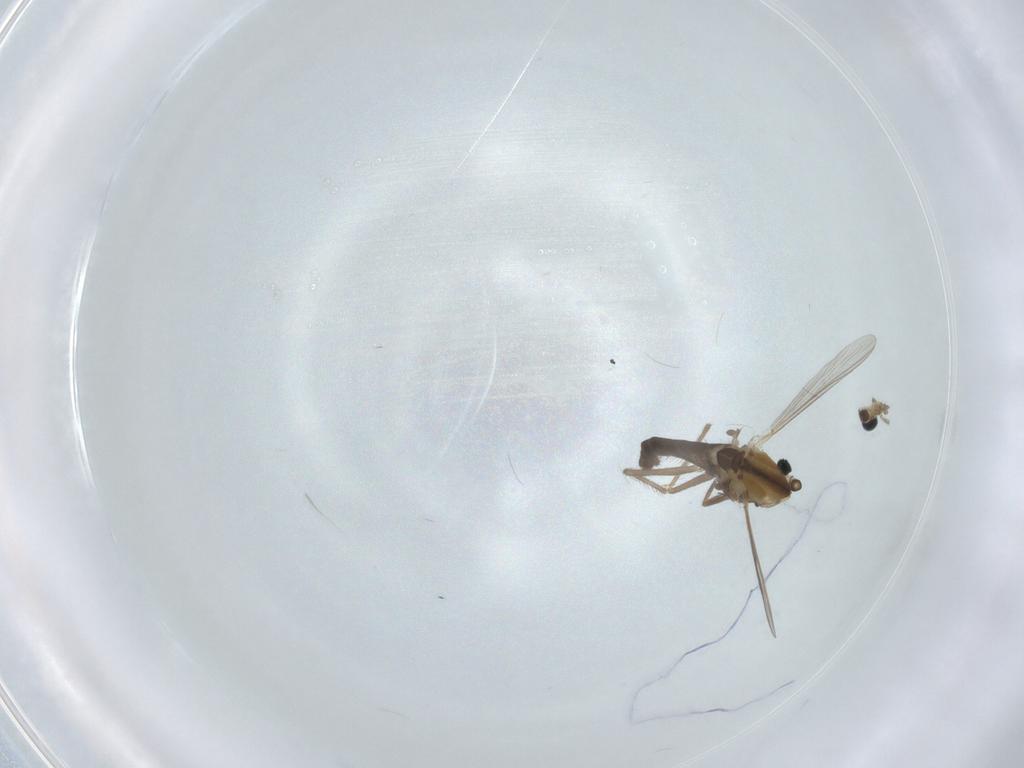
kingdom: Animalia
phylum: Arthropoda
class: Insecta
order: Diptera
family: Chironomidae
